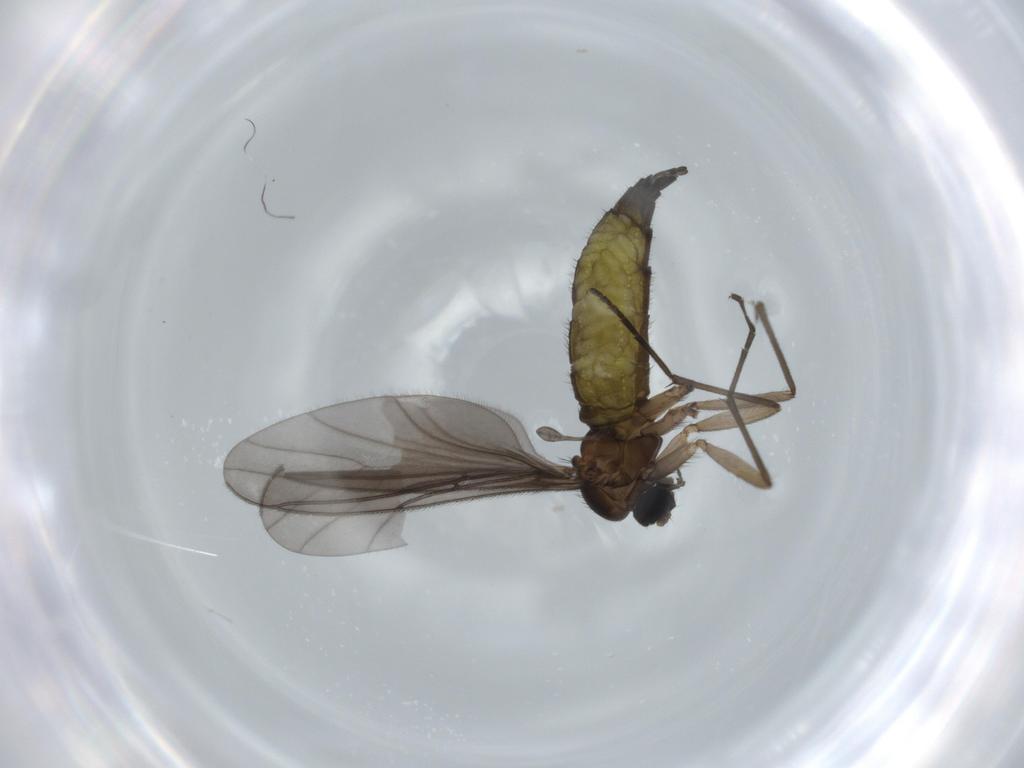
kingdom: Animalia
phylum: Arthropoda
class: Insecta
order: Diptera
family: Sciaridae
